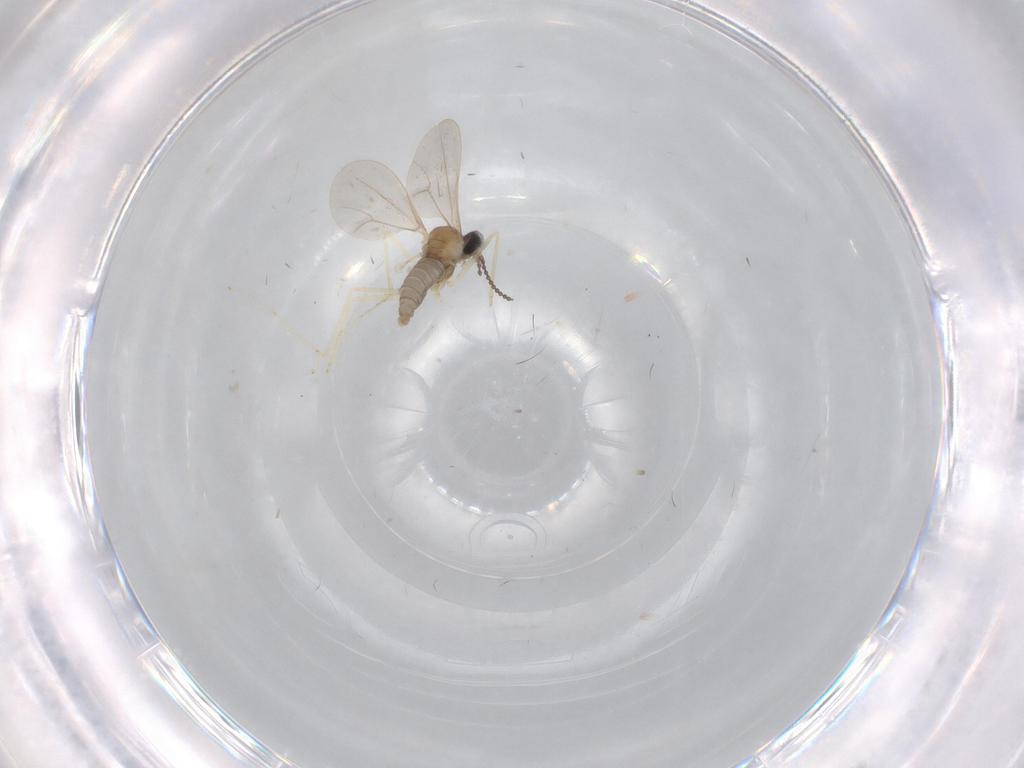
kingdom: Animalia
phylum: Arthropoda
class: Insecta
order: Diptera
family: Cecidomyiidae
